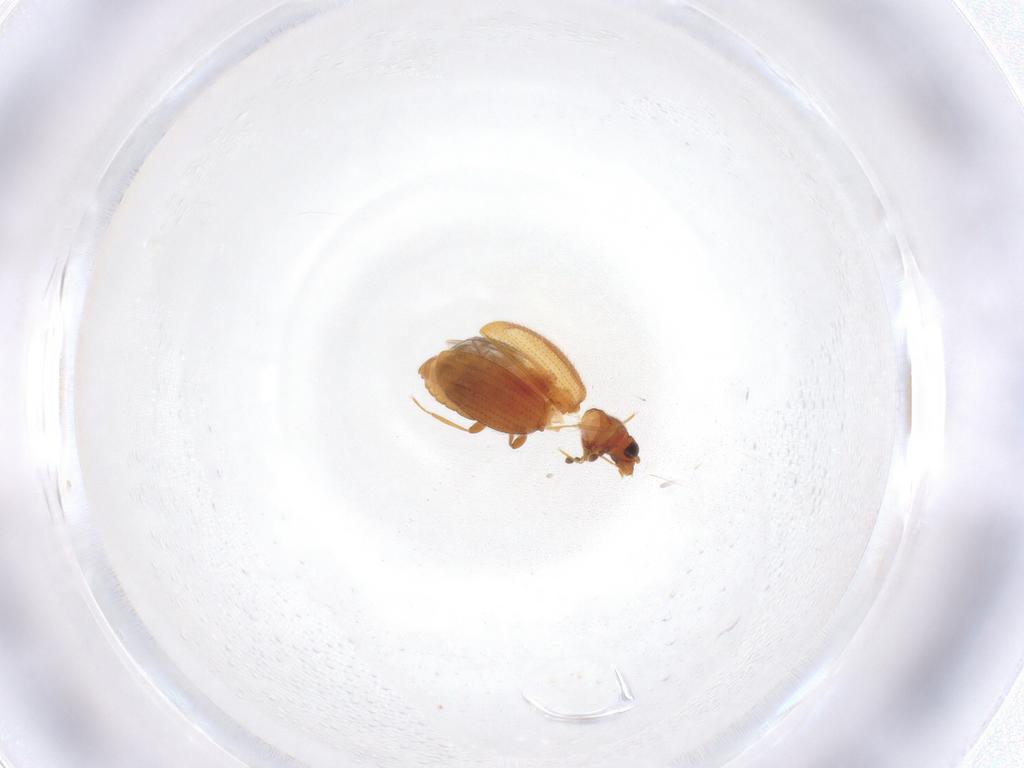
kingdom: Animalia
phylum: Arthropoda
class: Insecta
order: Coleoptera
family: Latridiidae
